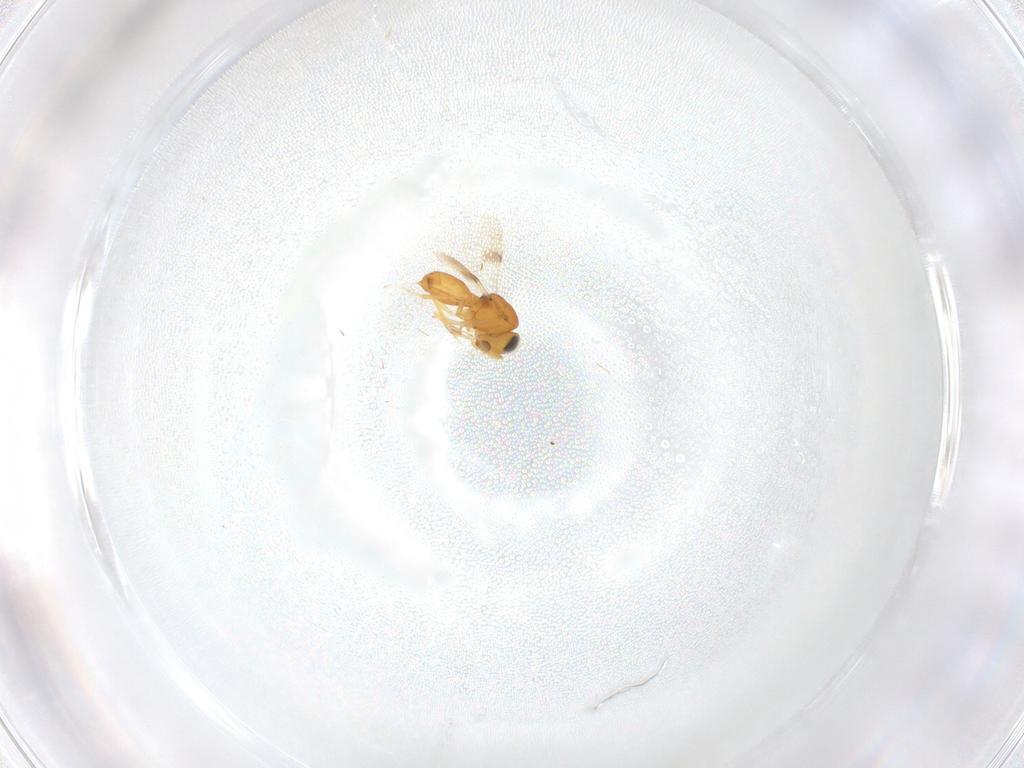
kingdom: Animalia
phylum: Arthropoda
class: Insecta
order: Hymenoptera
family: Scelionidae
